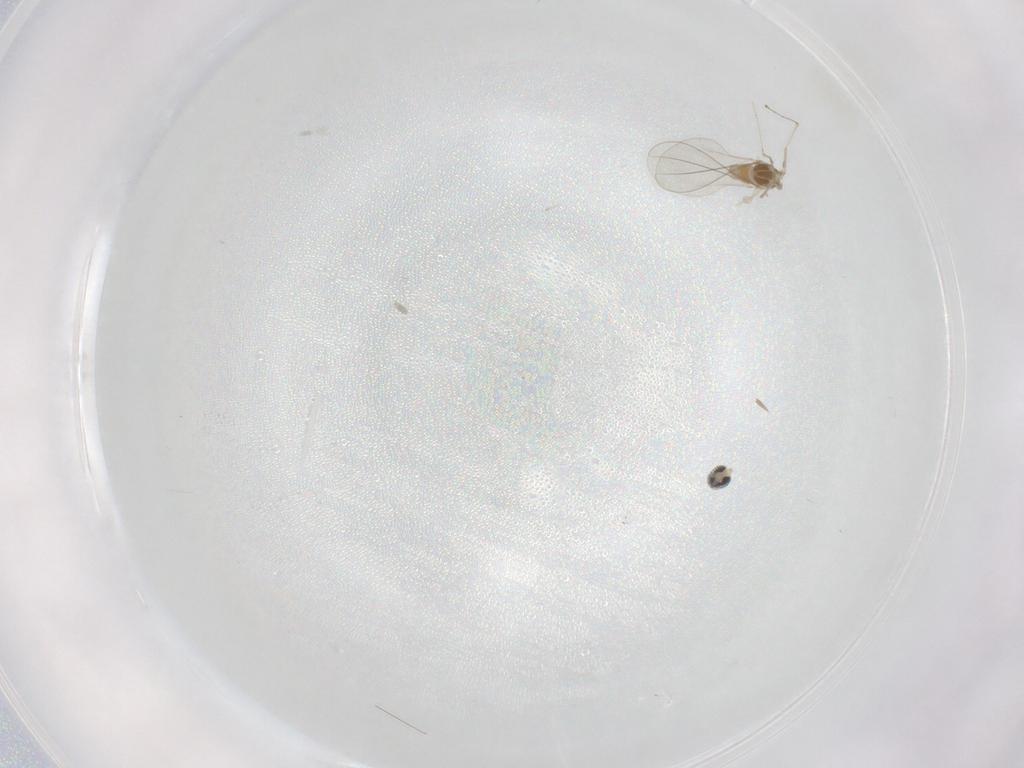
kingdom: Animalia
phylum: Arthropoda
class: Insecta
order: Diptera
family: Cecidomyiidae
